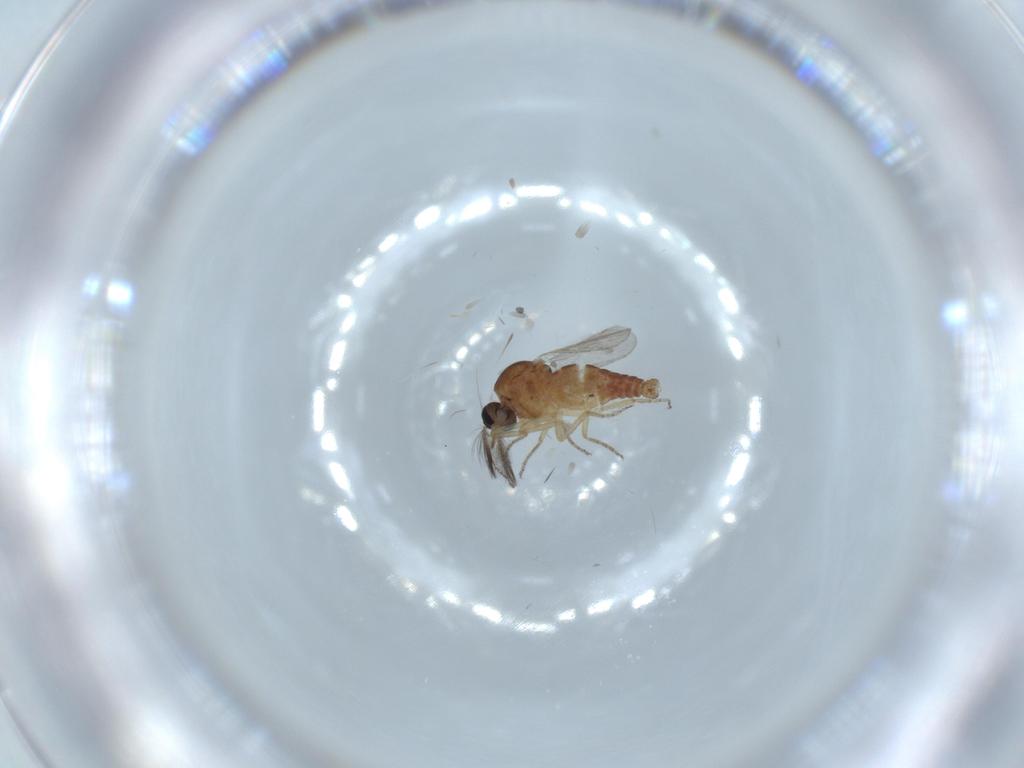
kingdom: Animalia
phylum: Arthropoda
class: Insecta
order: Diptera
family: Ceratopogonidae
